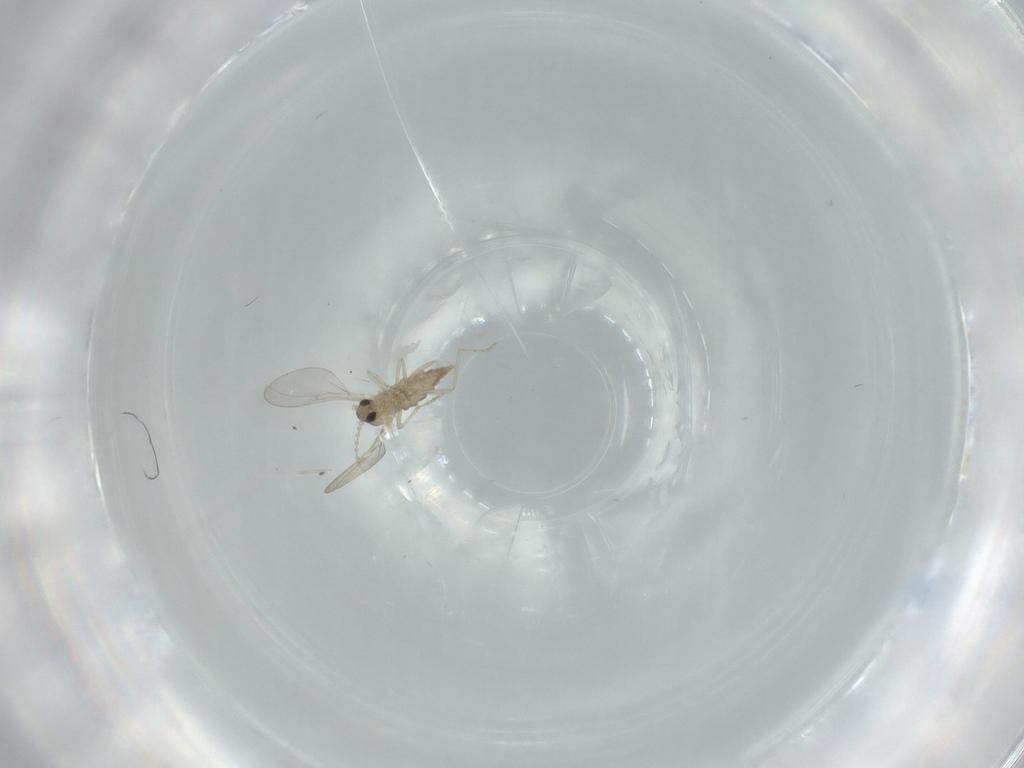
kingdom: Animalia
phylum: Arthropoda
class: Insecta
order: Diptera
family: Cecidomyiidae
